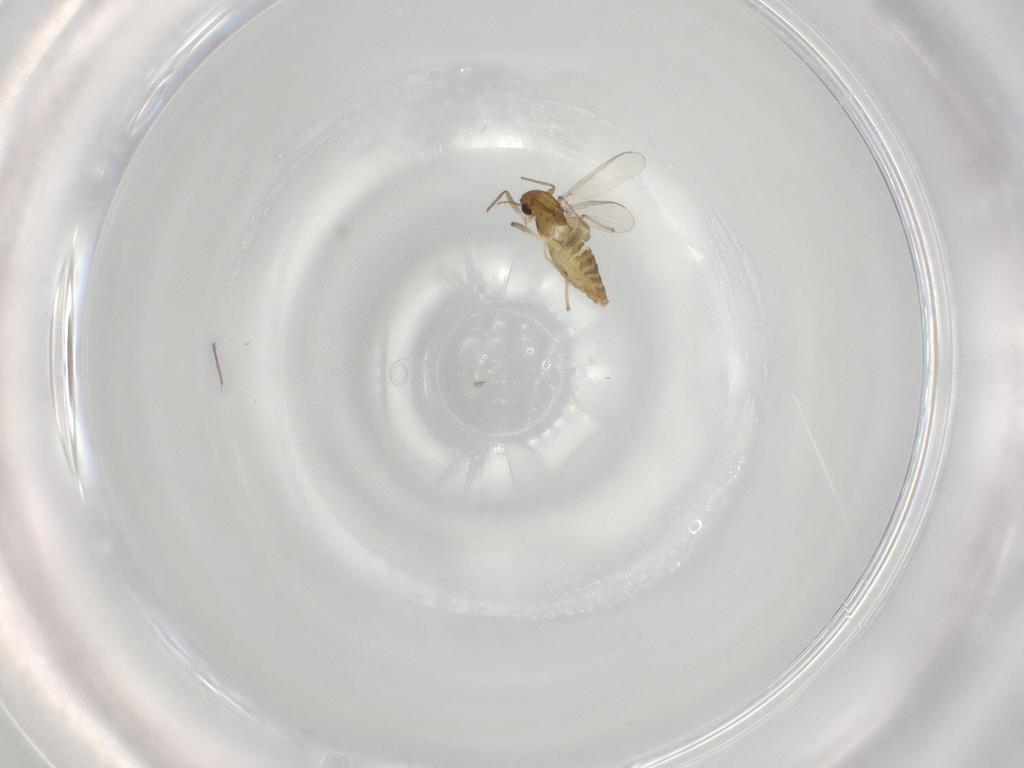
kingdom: Animalia
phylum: Arthropoda
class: Insecta
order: Diptera
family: Chironomidae
